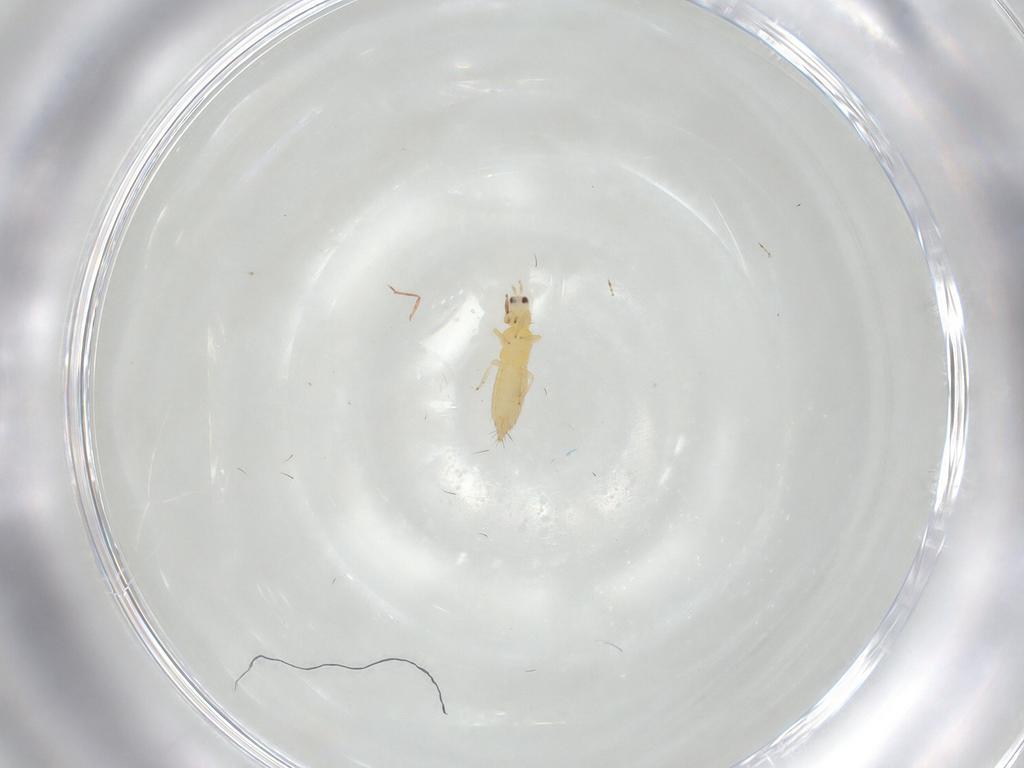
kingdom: Animalia
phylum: Arthropoda
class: Insecta
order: Thysanoptera
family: Thripidae
